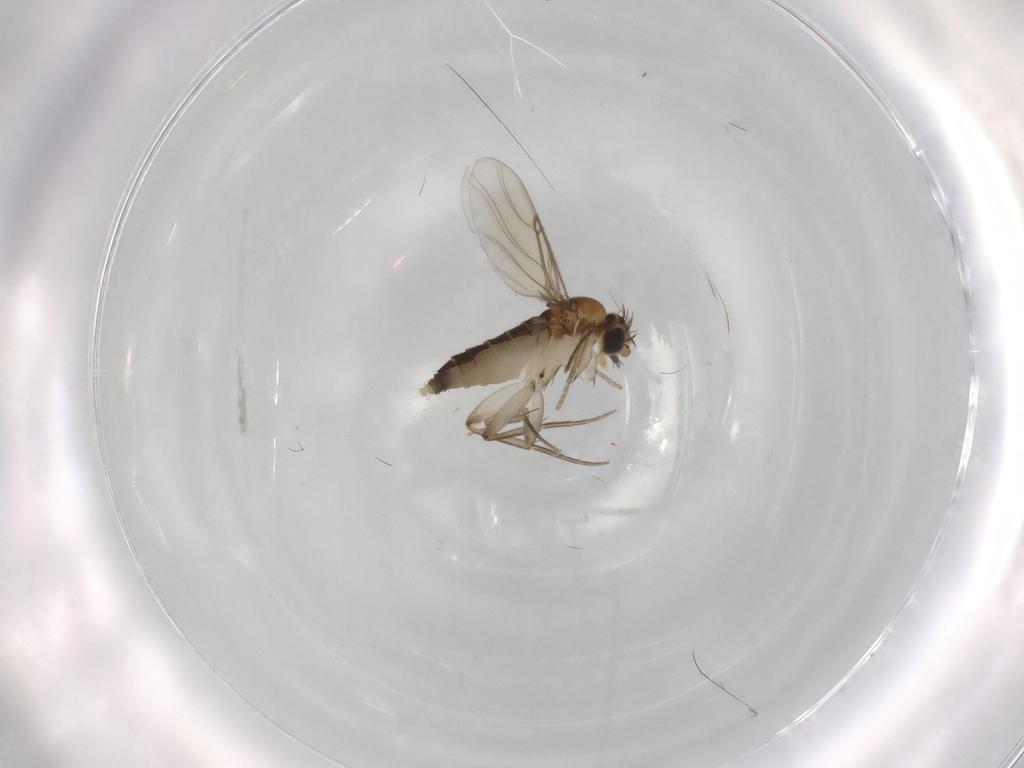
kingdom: Animalia
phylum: Arthropoda
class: Insecta
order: Diptera
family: Phoridae
